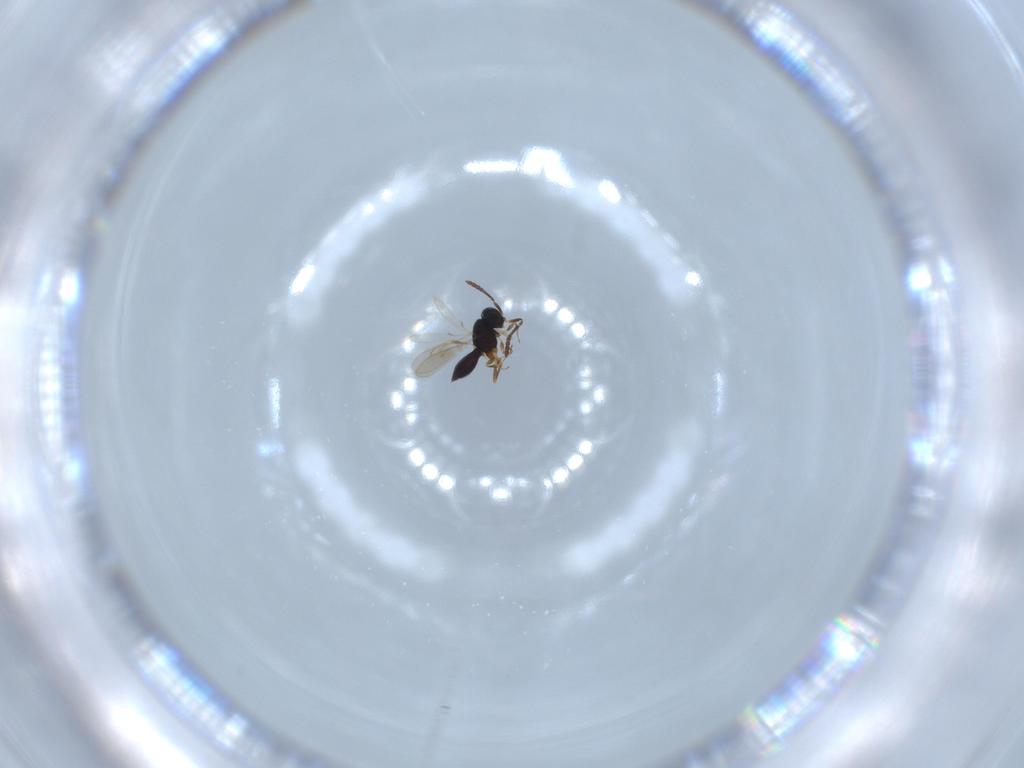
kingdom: Animalia
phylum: Arthropoda
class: Insecta
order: Hymenoptera
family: Scelionidae
